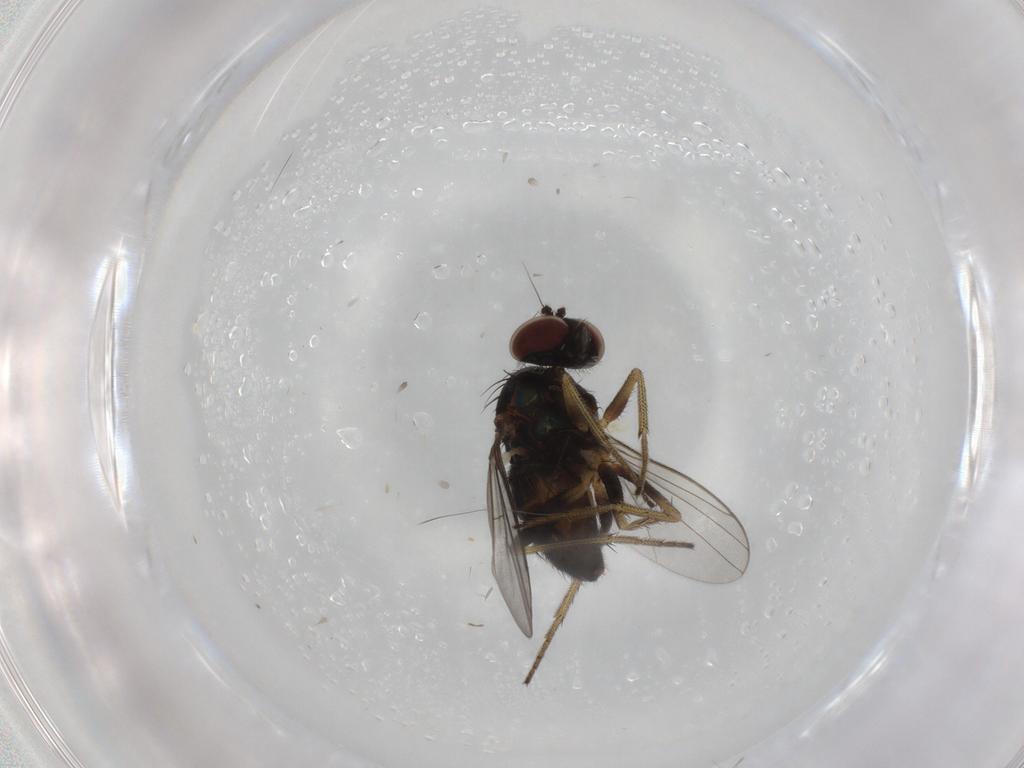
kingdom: Animalia
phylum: Arthropoda
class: Insecta
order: Diptera
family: Chironomidae
